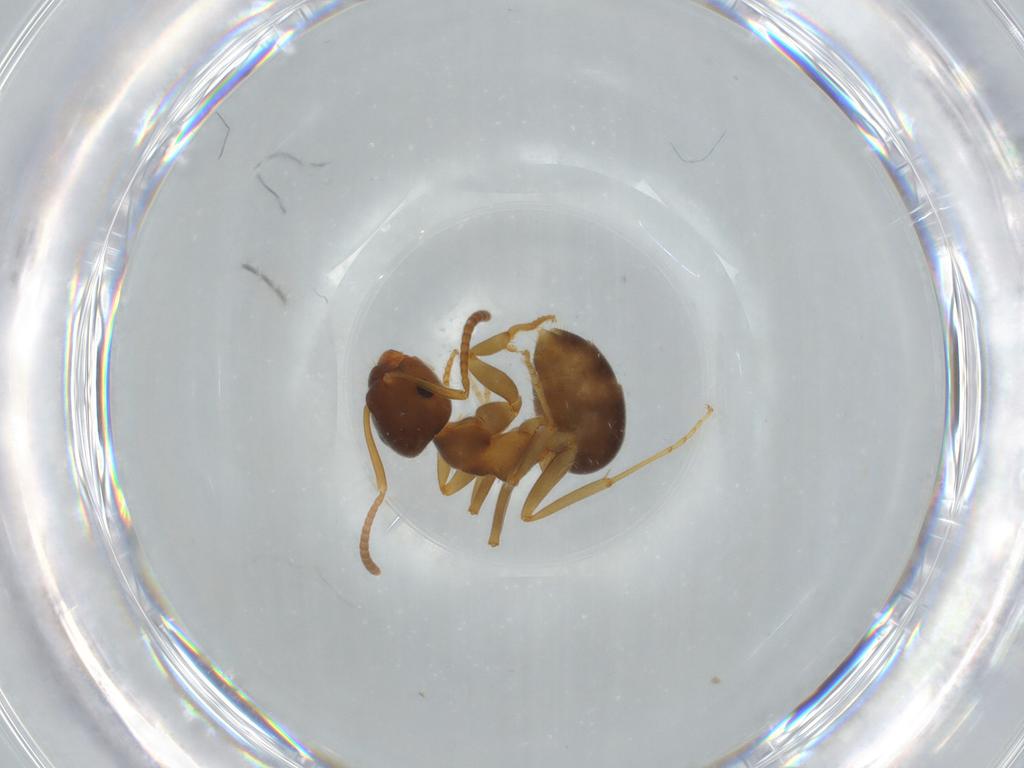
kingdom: Animalia
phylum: Arthropoda
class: Insecta
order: Hymenoptera
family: Formicidae
